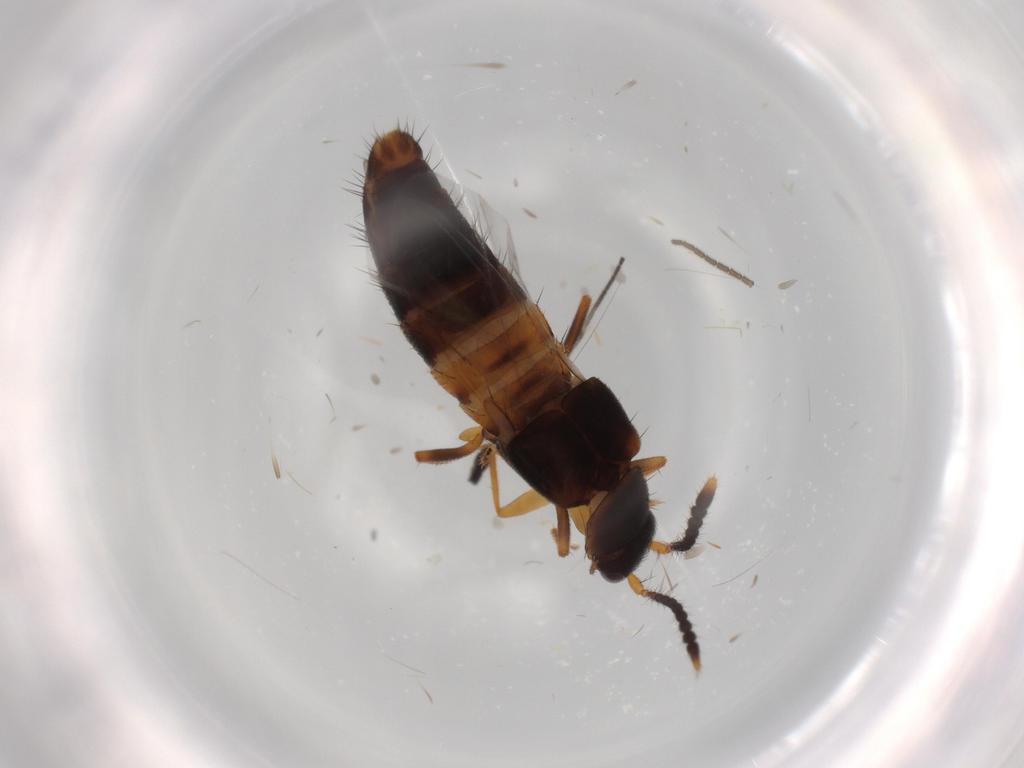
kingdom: Animalia
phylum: Arthropoda
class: Insecta
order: Coleoptera
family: Staphylinidae
